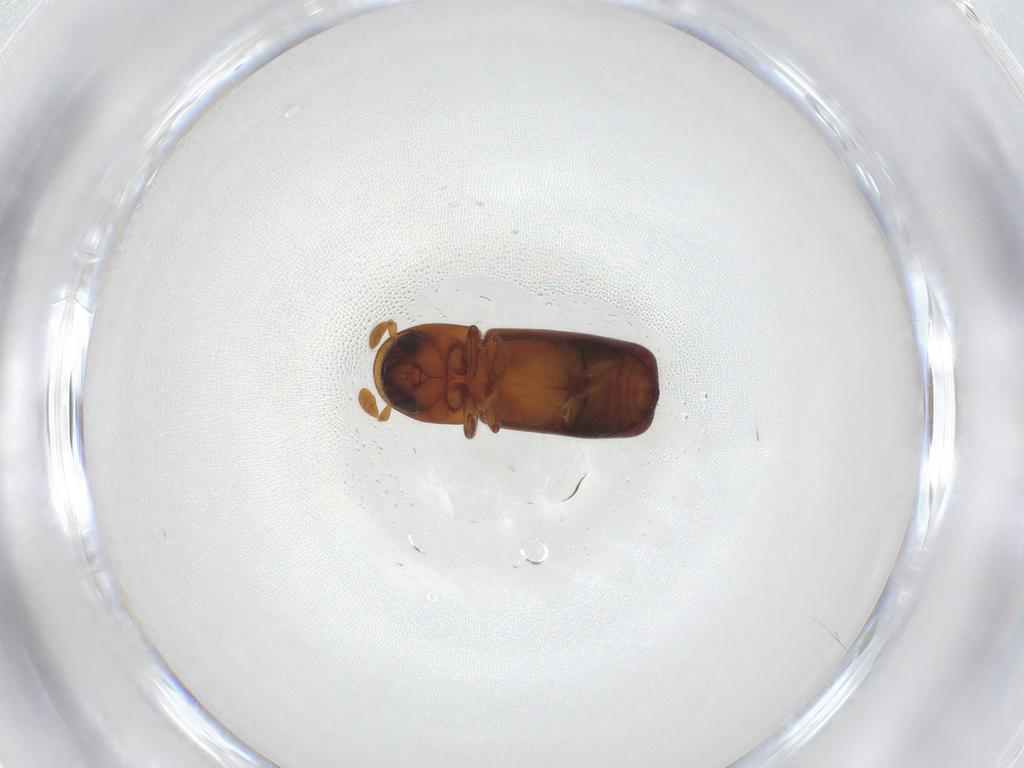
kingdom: Animalia
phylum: Arthropoda
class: Insecta
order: Coleoptera
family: Curculionidae
